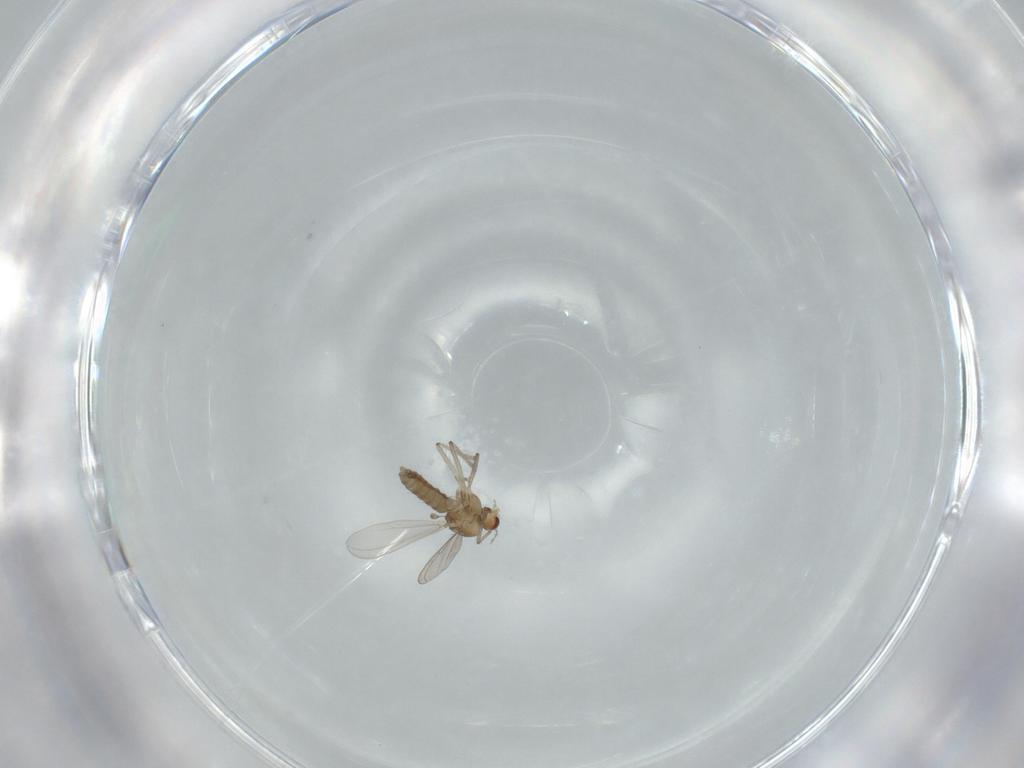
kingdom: Animalia
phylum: Arthropoda
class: Insecta
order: Diptera
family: Chironomidae
